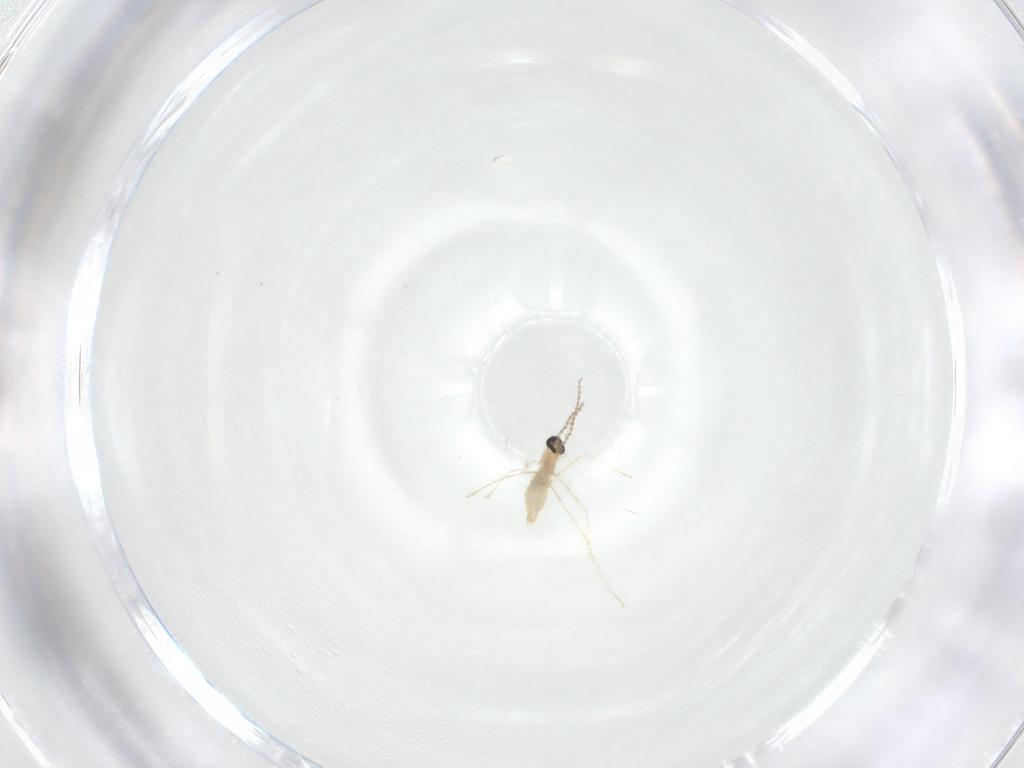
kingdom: Animalia
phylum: Arthropoda
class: Insecta
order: Diptera
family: Cecidomyiidae
